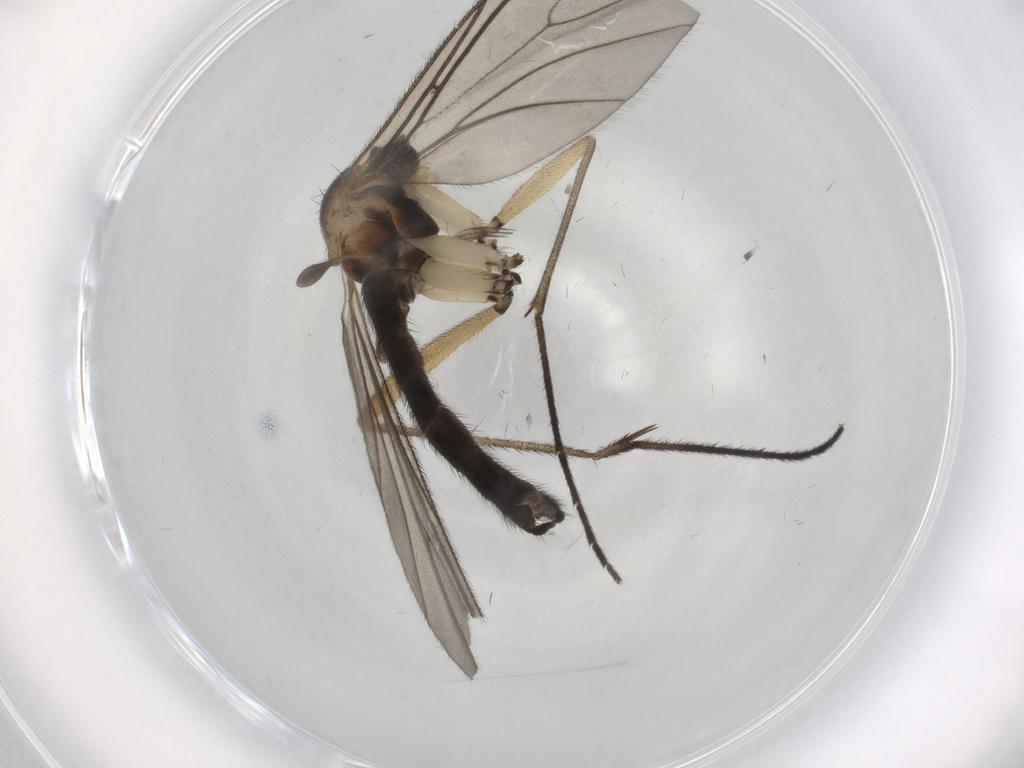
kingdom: Animalia
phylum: Arthropoda
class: Insecta
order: Diptera
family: Sciaridae
